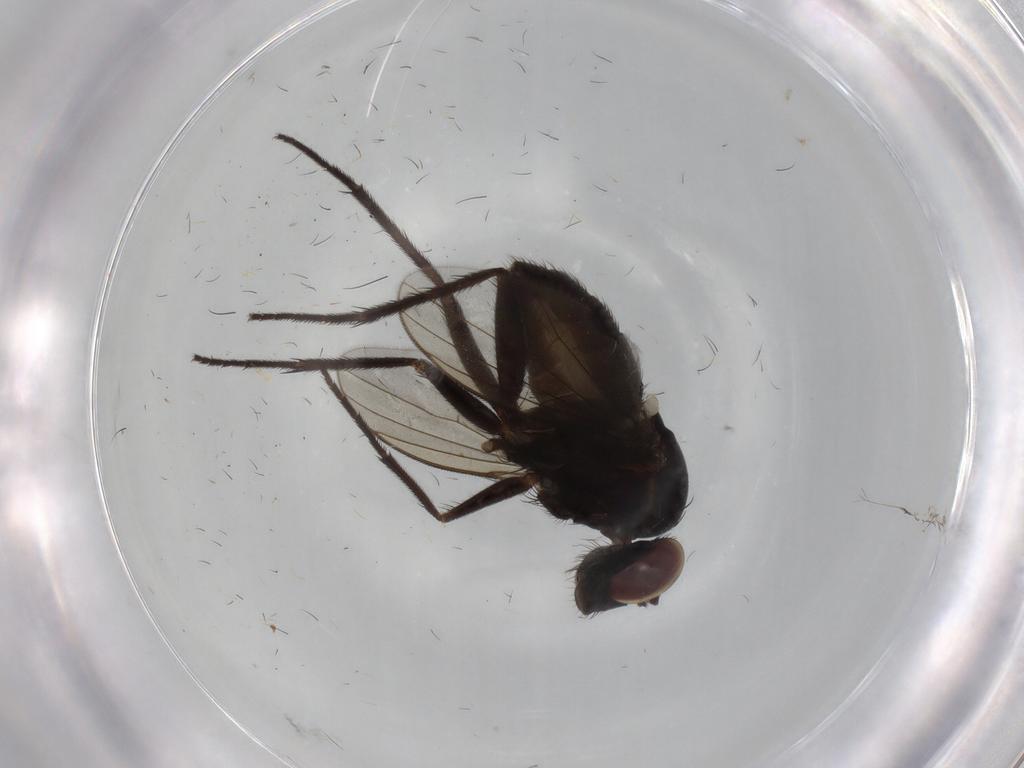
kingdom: Animalia
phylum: Arthropoda
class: Insecta
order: Diptera
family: Dolichopodidae
